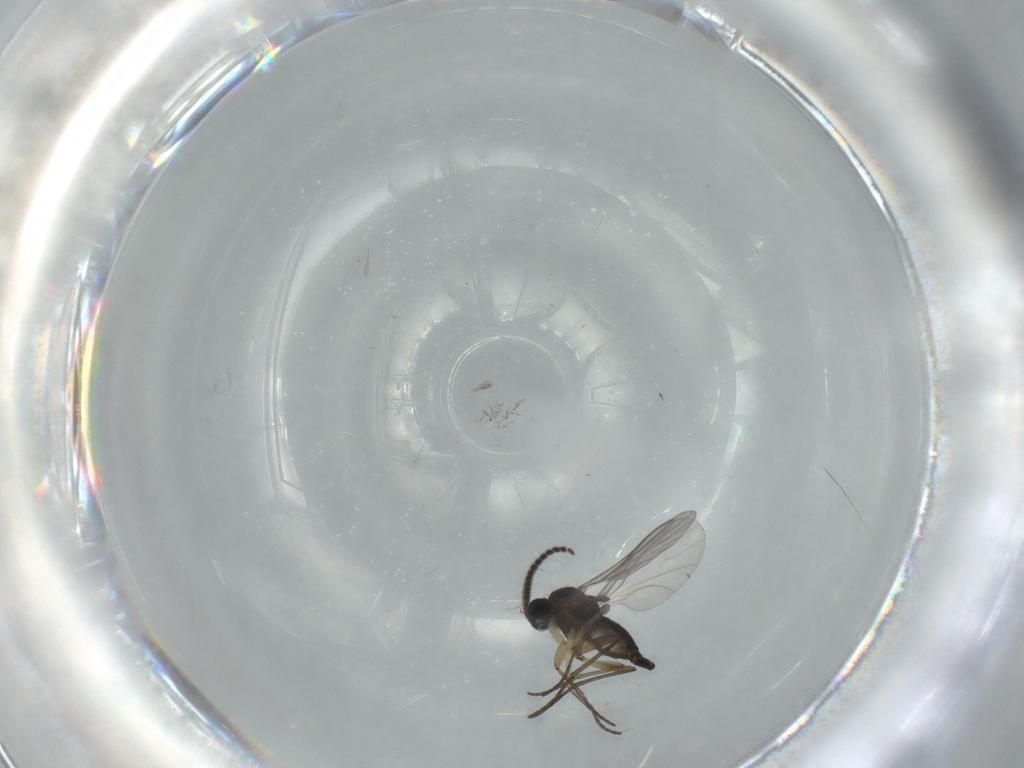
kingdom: Animalia
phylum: Arthropoda
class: Insecta
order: Diptera
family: Sciaridae
